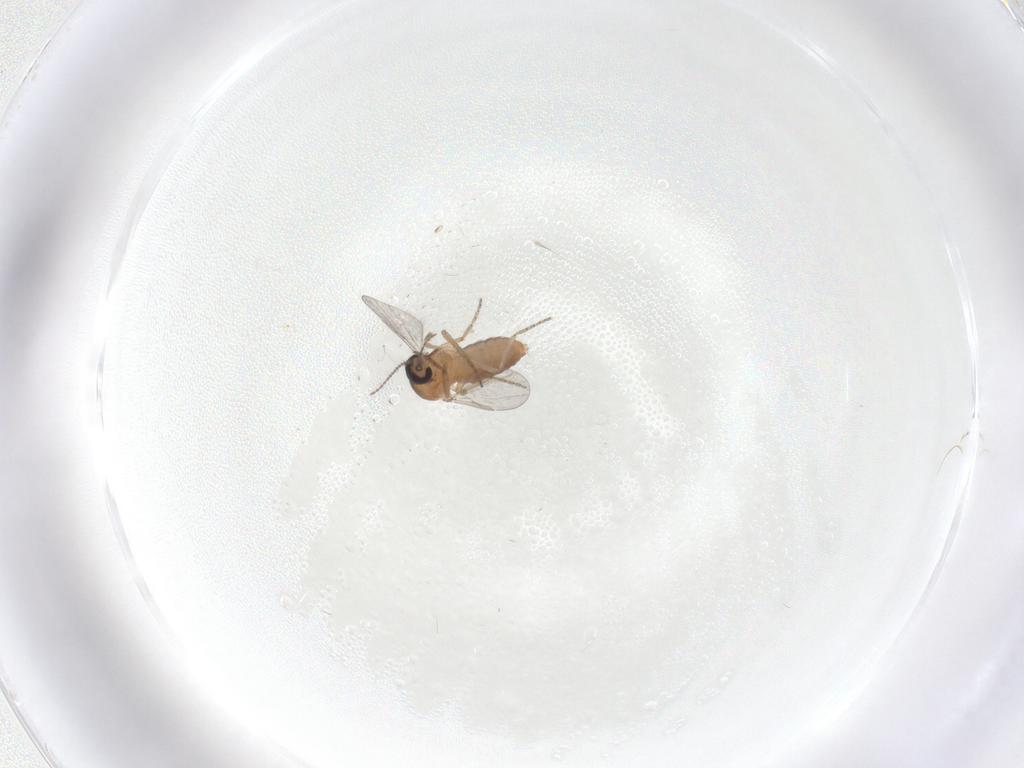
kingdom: Animalia
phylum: Arthropoda
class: Insecta
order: Diptera
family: Ceratopogonidae
